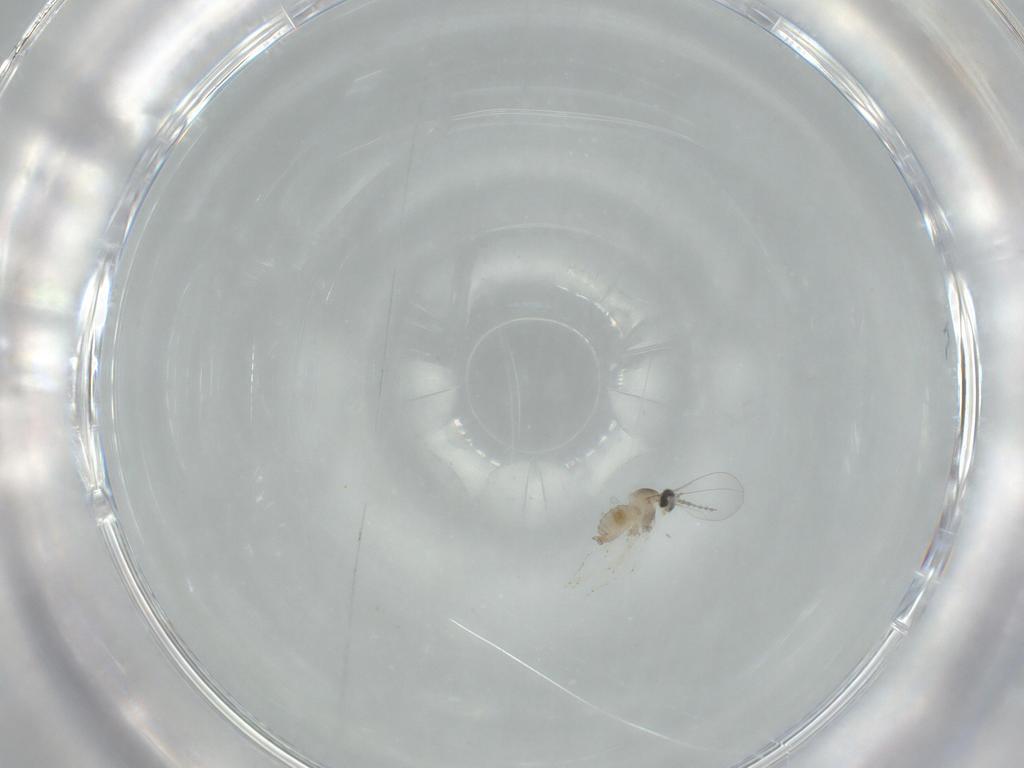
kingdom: Animalia
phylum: Arthropoda
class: Insecta
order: Diptera
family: Cecidomyiidae
